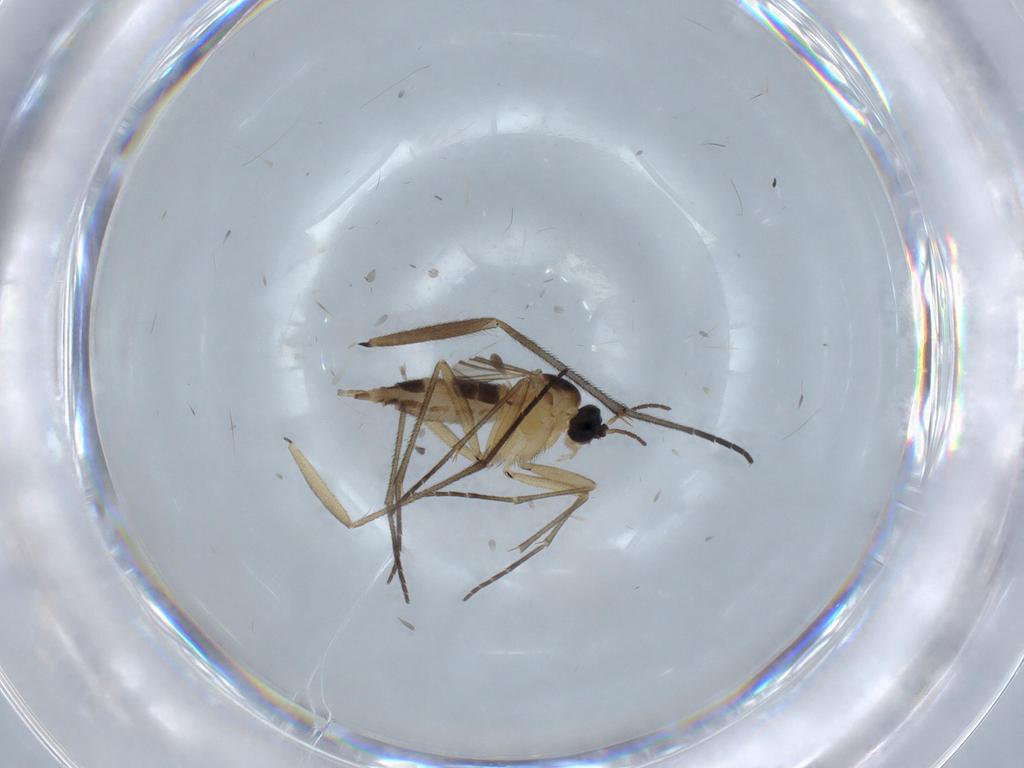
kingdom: Animalia
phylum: Arthropoda
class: Insecta
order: Diptera
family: Sciaridae
